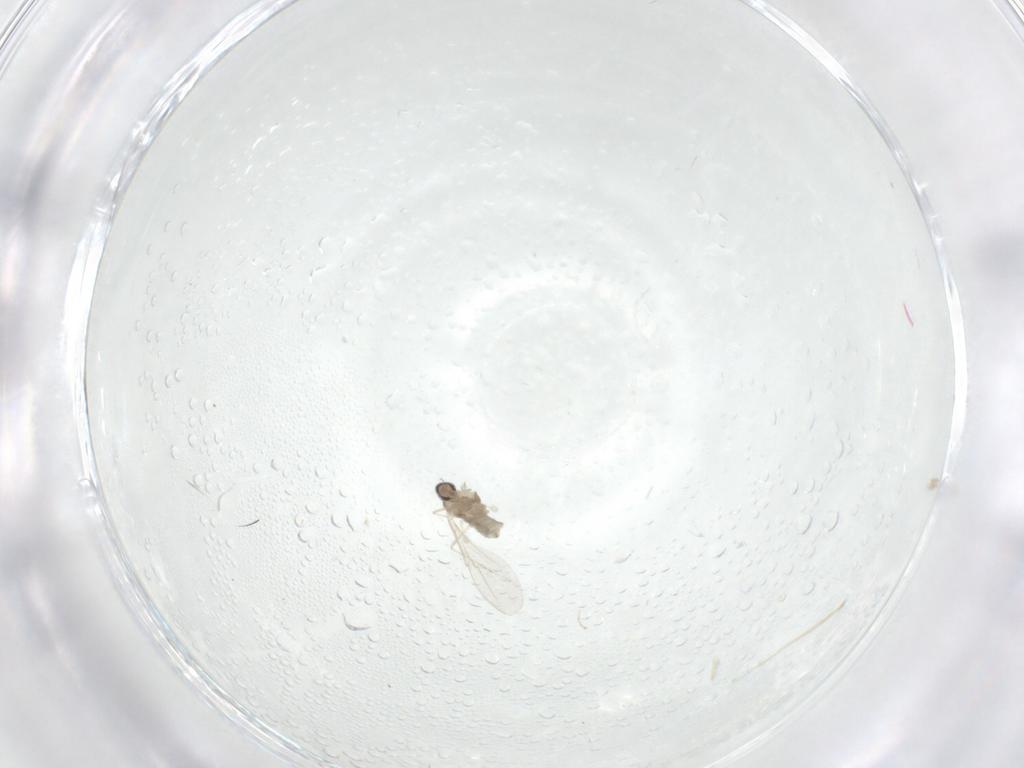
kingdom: Animalia
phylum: Arthropoda
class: Insecta
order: Diptera
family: Cecidomyiidae
